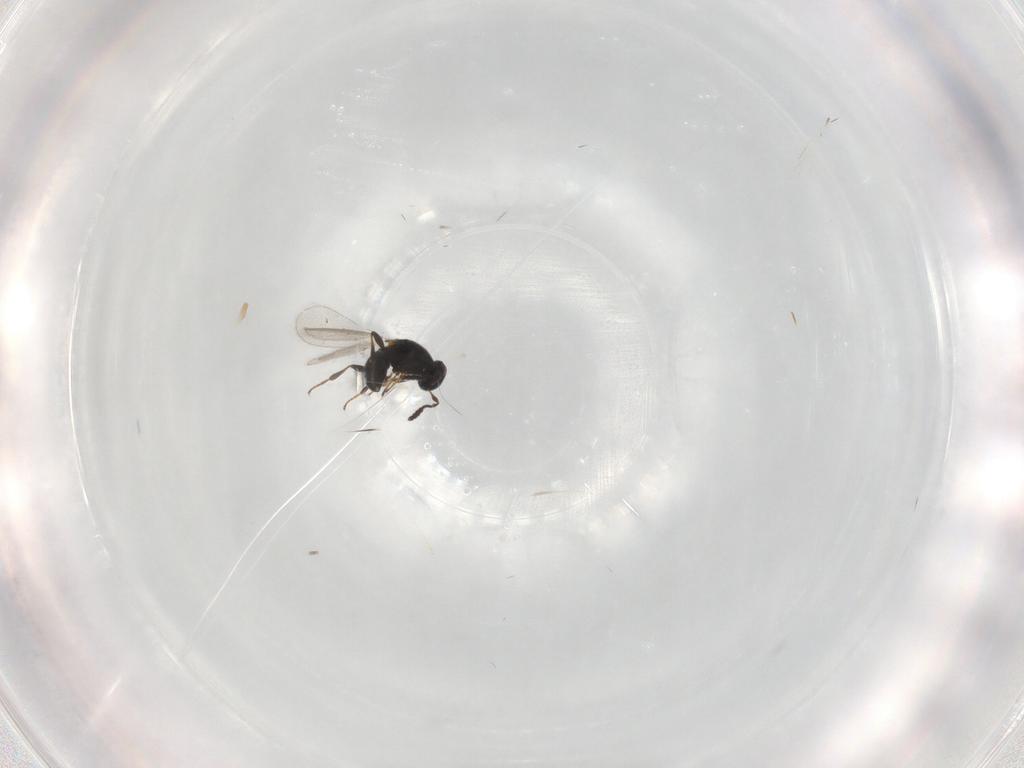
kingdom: Animalia
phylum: Arthropoda
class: Insecta
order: Hymenoptera
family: Platygastridae
